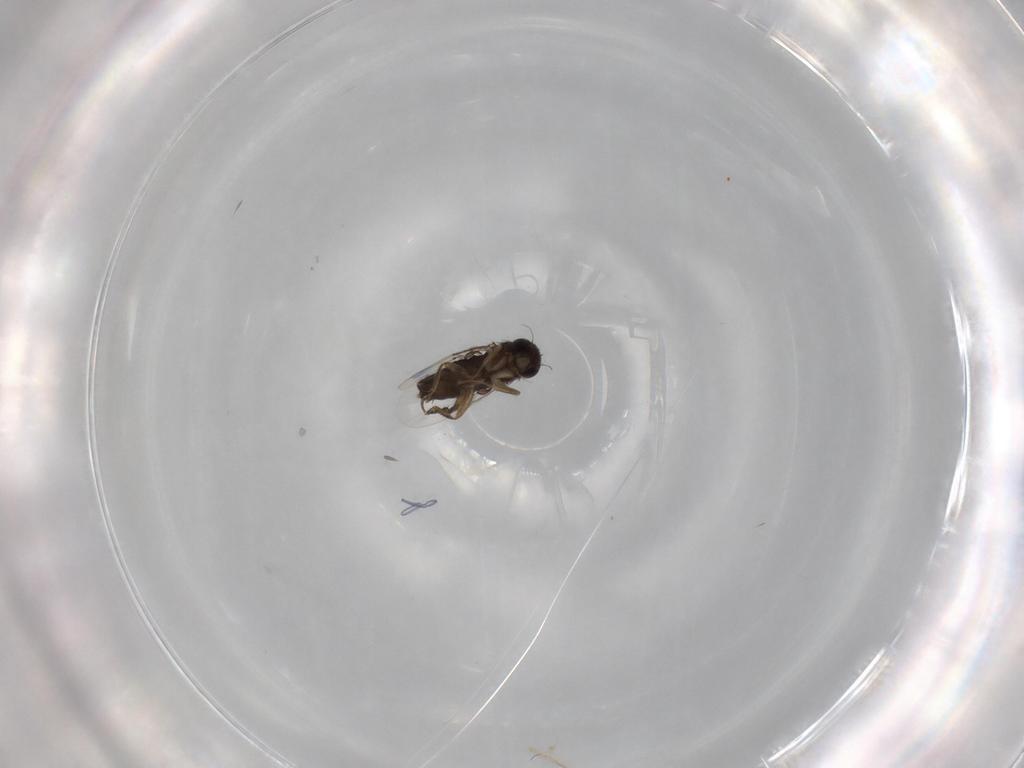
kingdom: Animalia
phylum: Arthropoda
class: Insecta
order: Diptera
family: Phoridae
